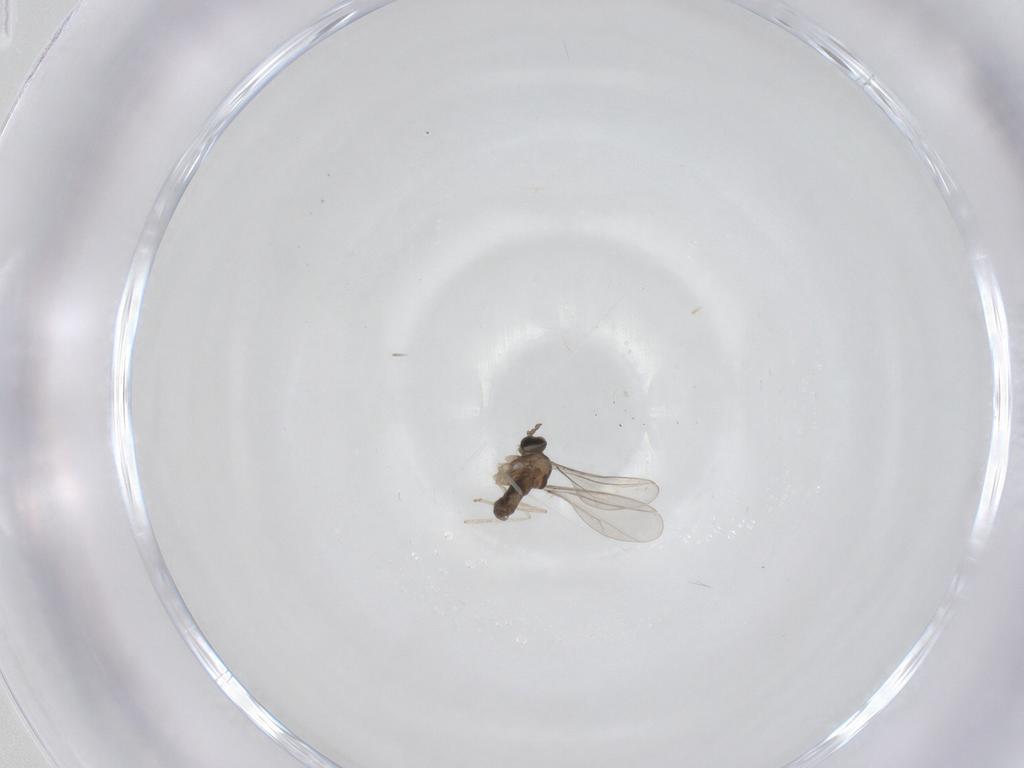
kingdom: Animalia
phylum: Arthropoda
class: Insecta
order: Diptera
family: Cecidomyiidae
